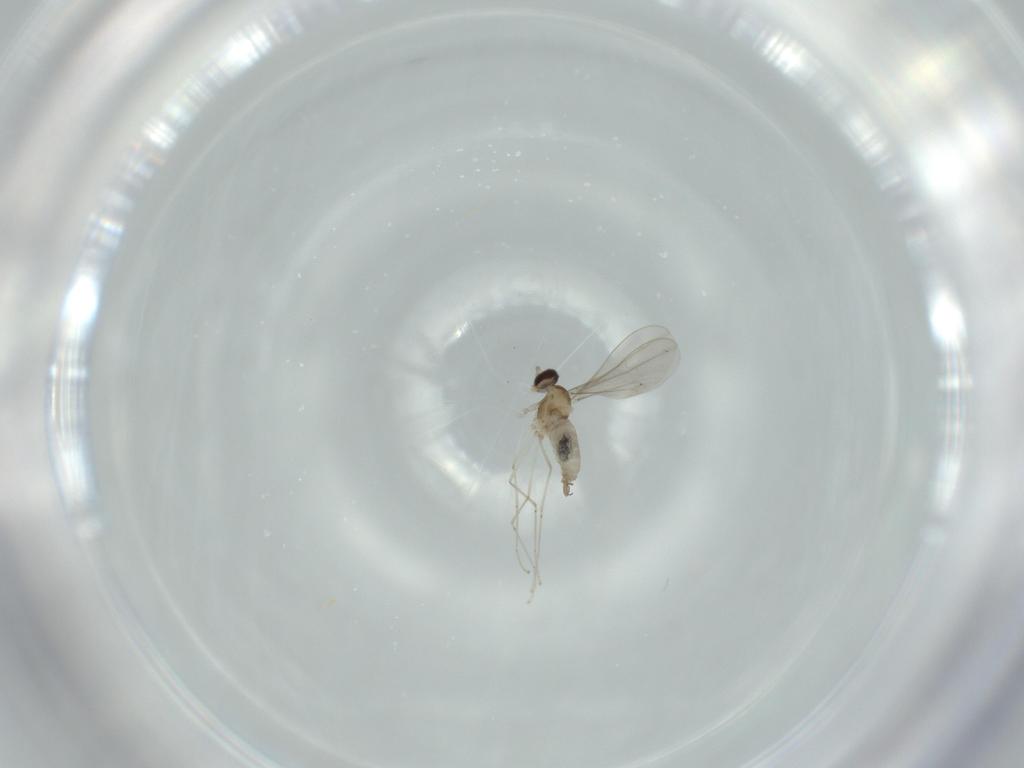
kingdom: Animalia
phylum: Arthropoda
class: Insecta
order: Diptera
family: Cecidomyiidae
